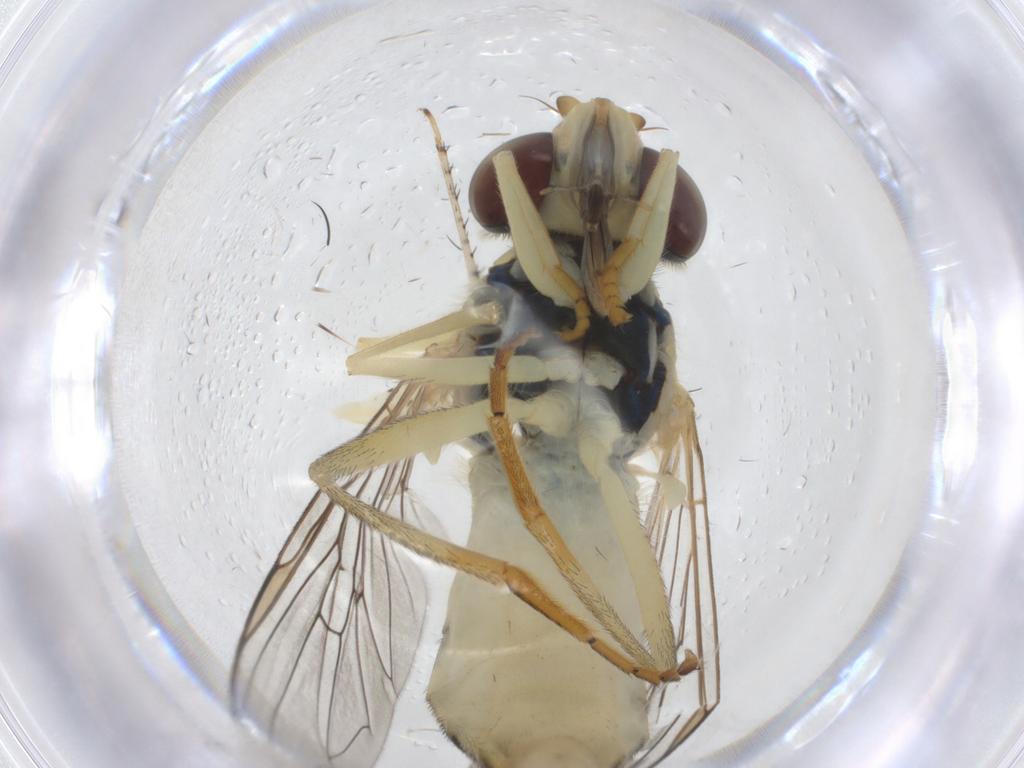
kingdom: Animalia
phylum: Arthropoda
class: Insecta
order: Diptera
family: Syrphidae
